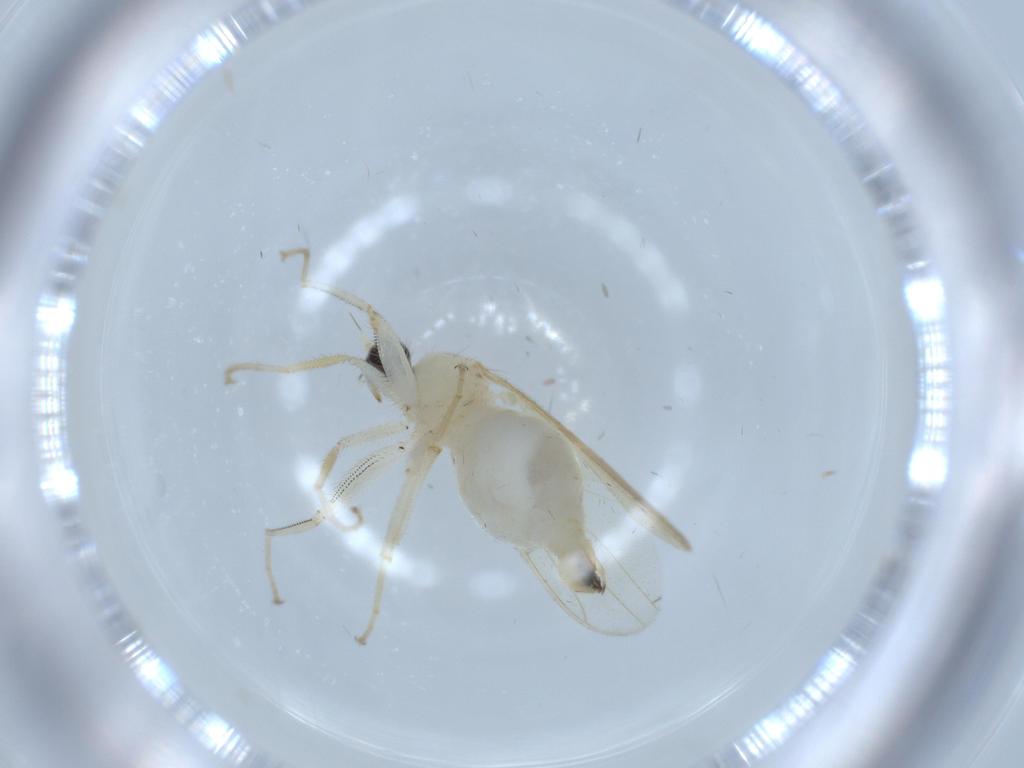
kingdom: Animalia
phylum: Arthropoda
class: Insecta
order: Diptera
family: Hybotidae
